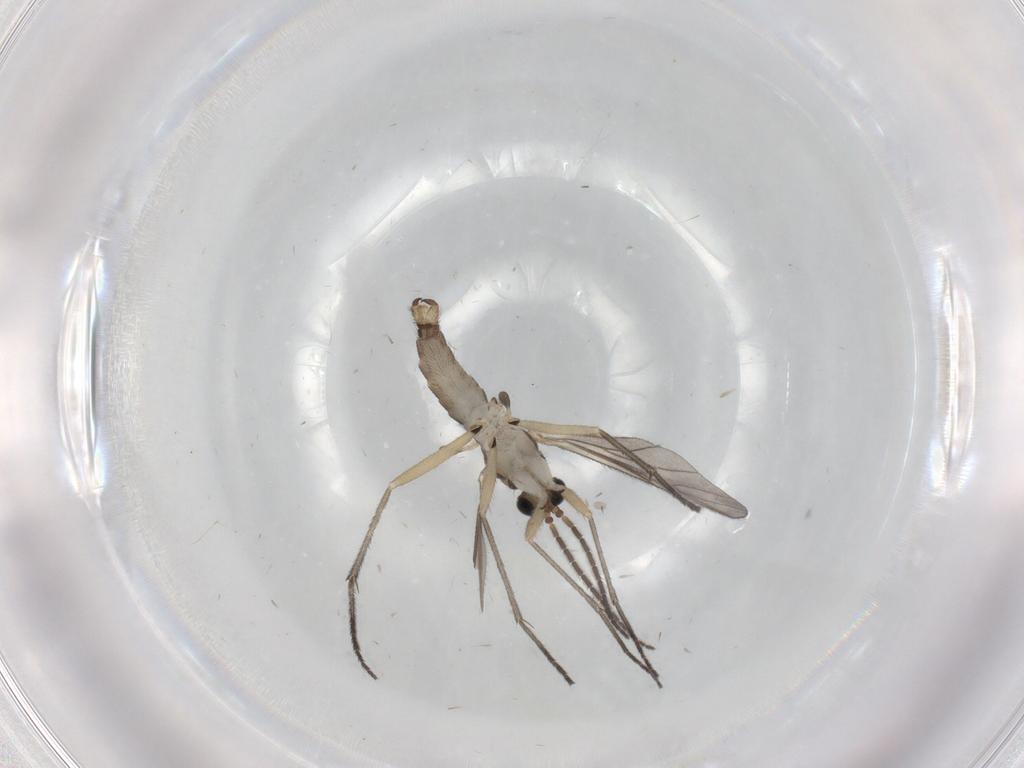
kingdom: Animalia
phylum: Arthropoda
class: Insecta
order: Diptera
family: Sciaridae
